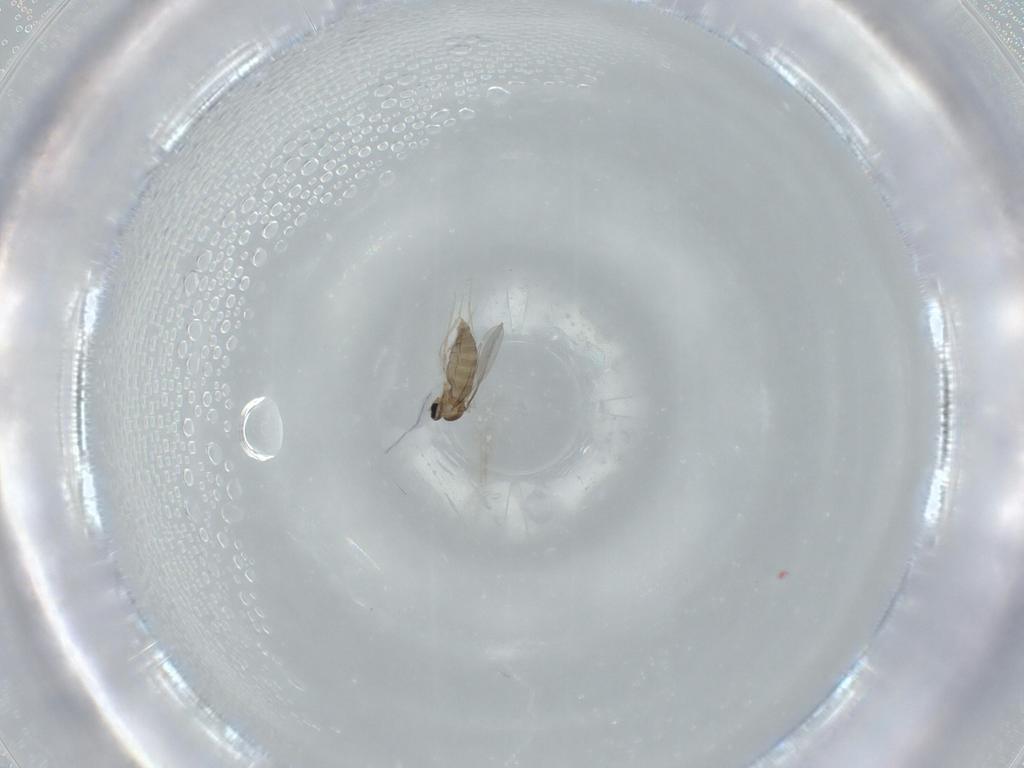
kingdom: Animalia
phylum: Arthropoda
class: Insecta
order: Diptera
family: Cecidomyiidae
